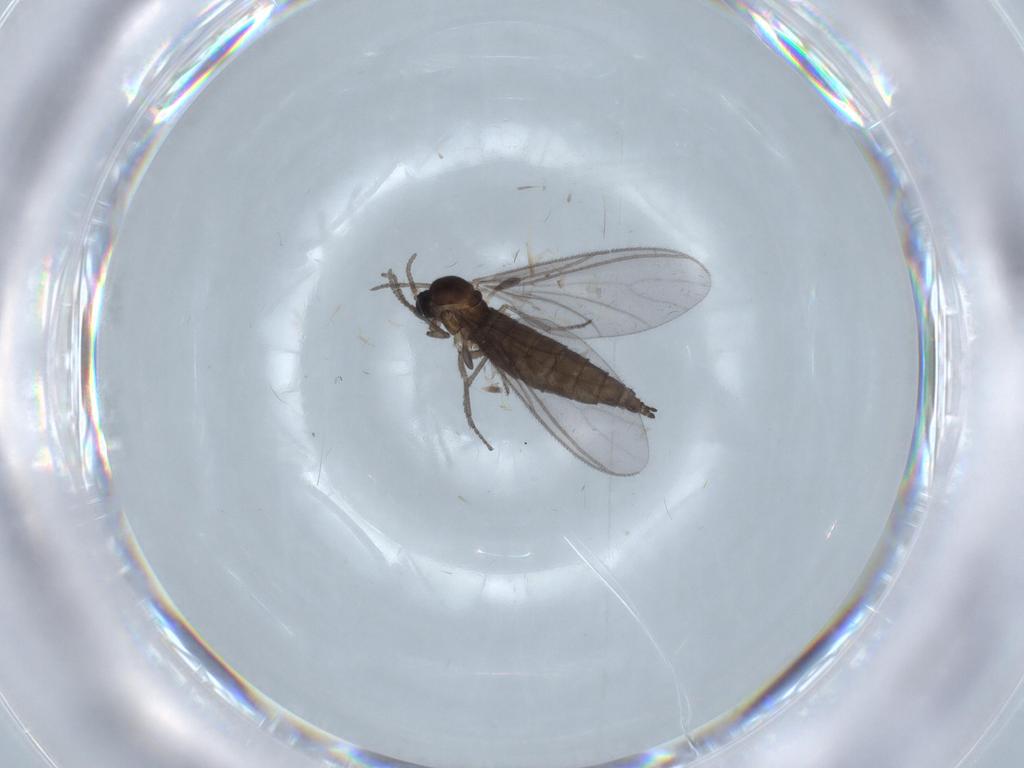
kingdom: Animalia
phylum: Arthropoda
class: Insecta
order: Diptera
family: Sciaridae
